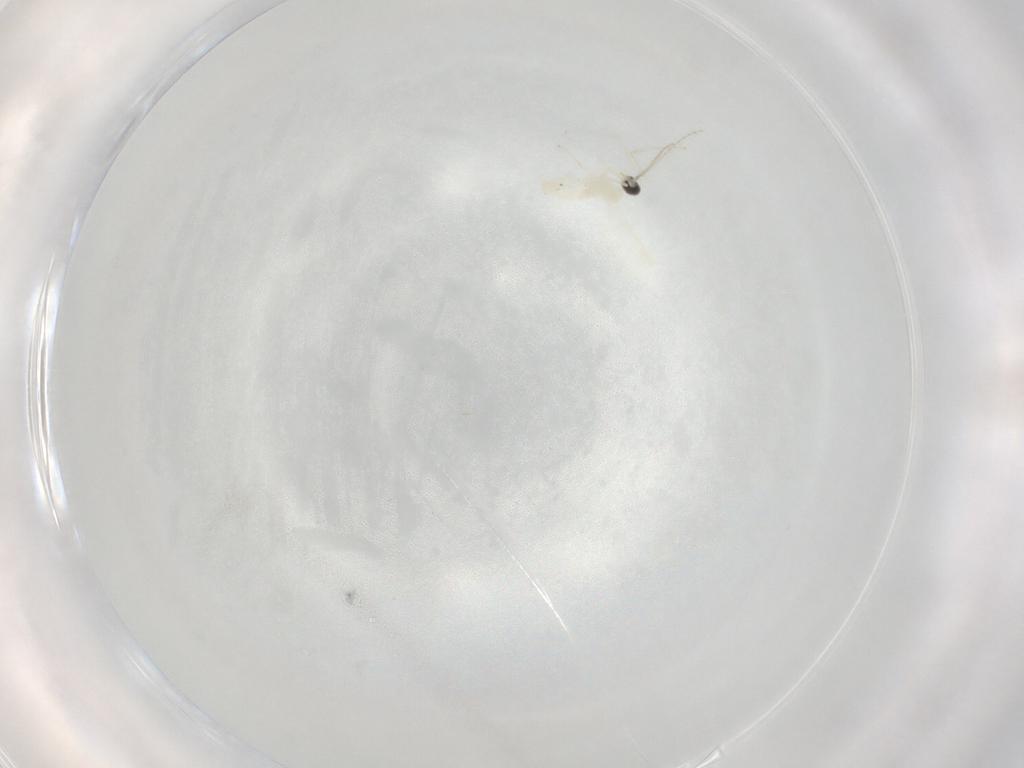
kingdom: Animalia
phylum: Arthropoda
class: Insecta
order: Diptera
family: Cecidomyiidae
